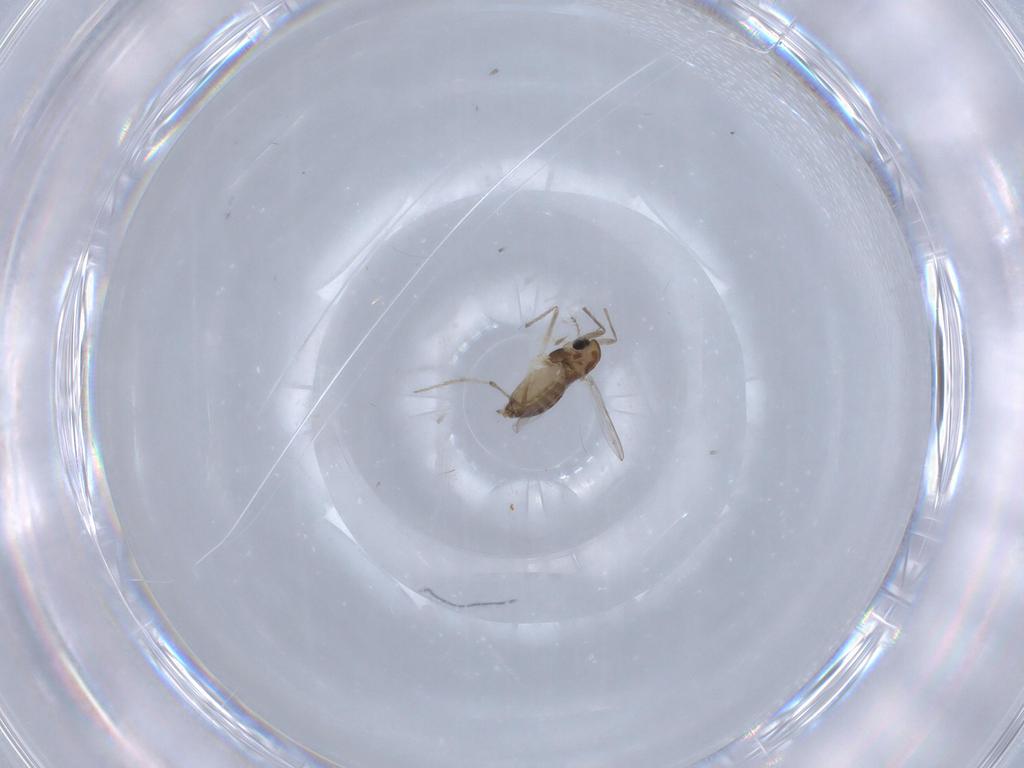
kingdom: Animalia
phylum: Arthropoda
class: Insecta
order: Diptera
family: Chironomidae
